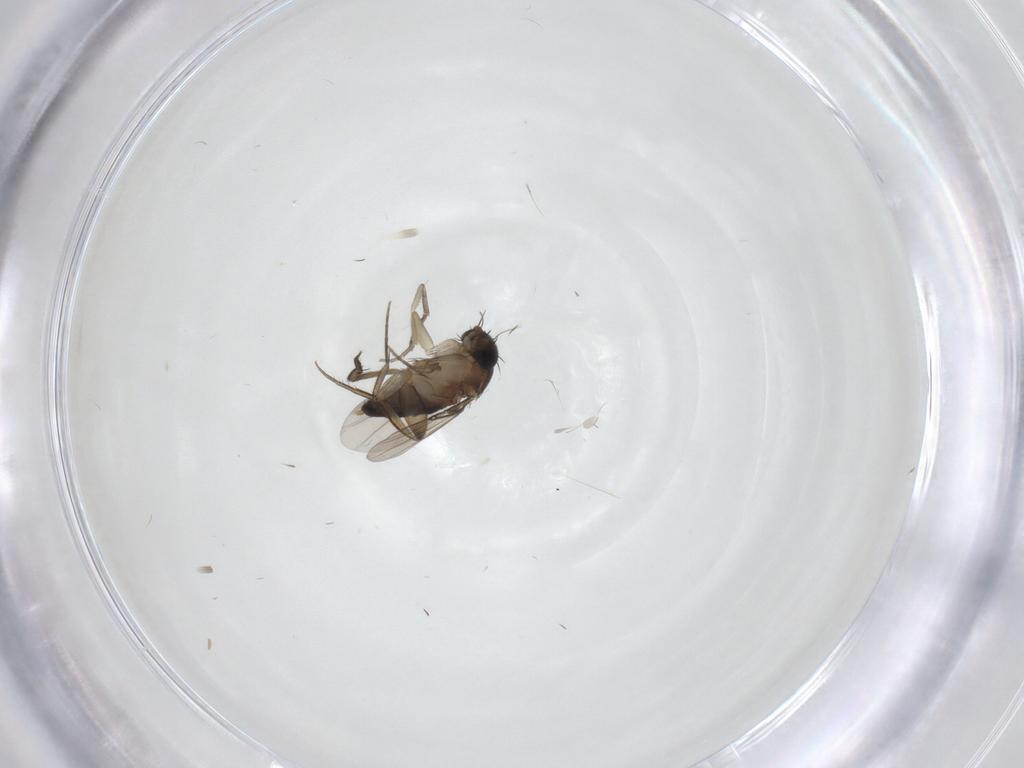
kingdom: Animalia
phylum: Arthropoda
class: Insecta
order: Diptera
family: Phoridae
